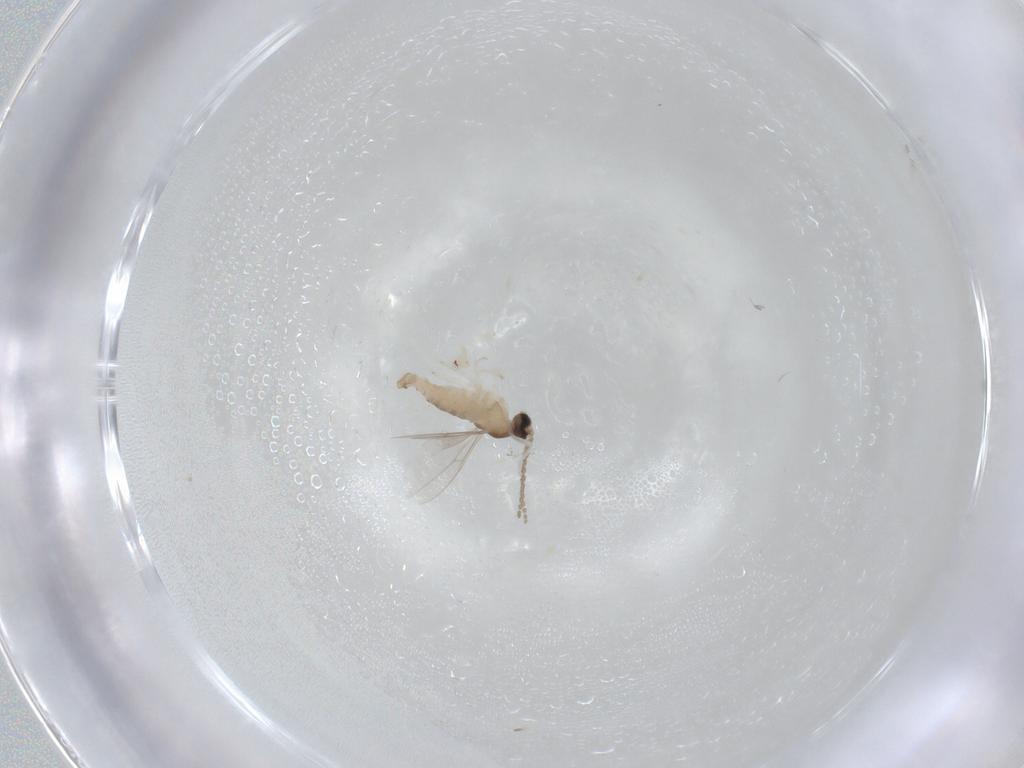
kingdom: Animalia
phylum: Arthropoda
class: Insecta
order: Diptera
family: Cecidomyiidae
